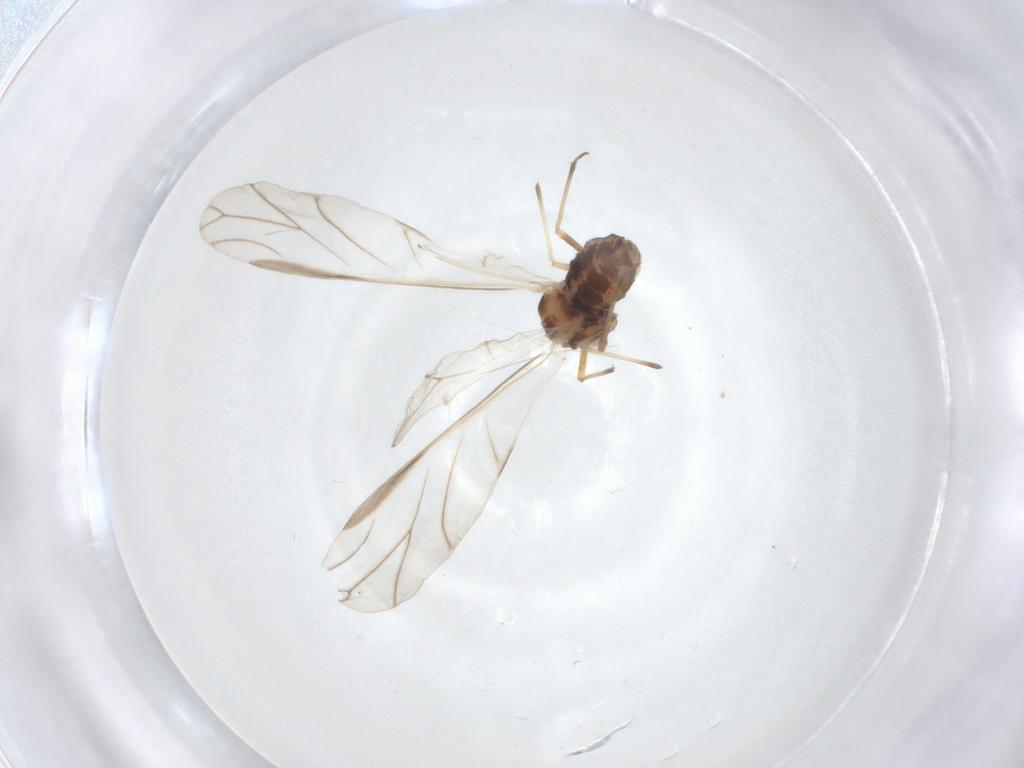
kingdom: Animalia
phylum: Arthropoda
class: Insecta
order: Hemiptera
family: Aphididae
